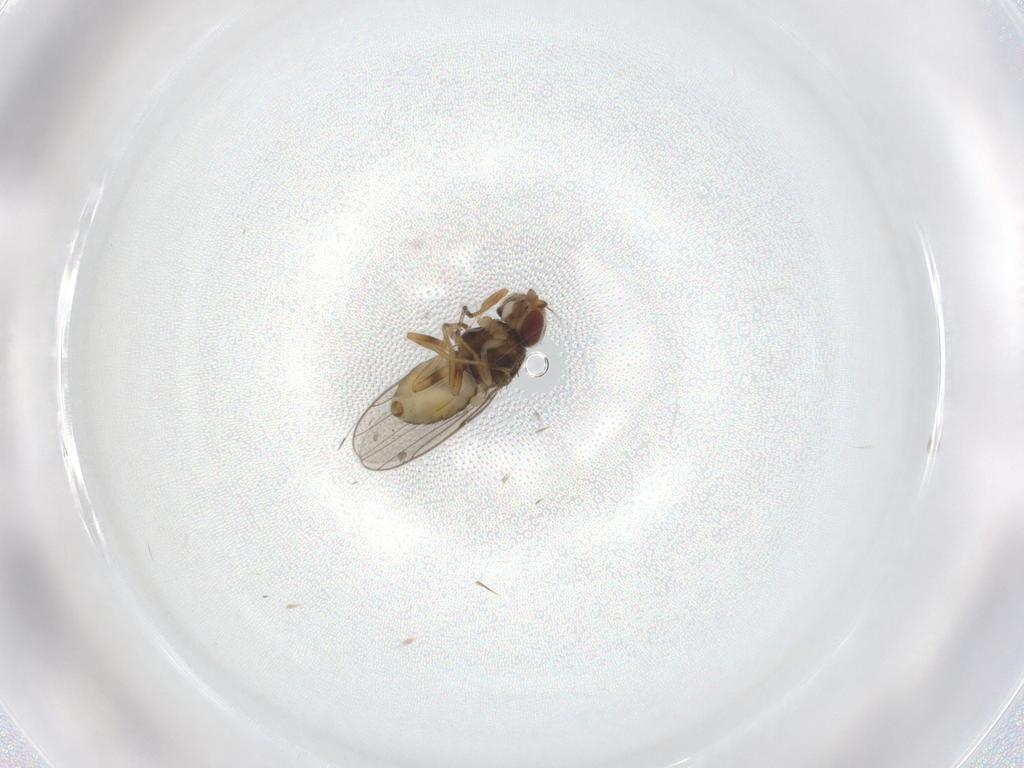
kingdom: Animalia
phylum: Arthropoda
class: Insecta
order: Diptera
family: Chloropidae
